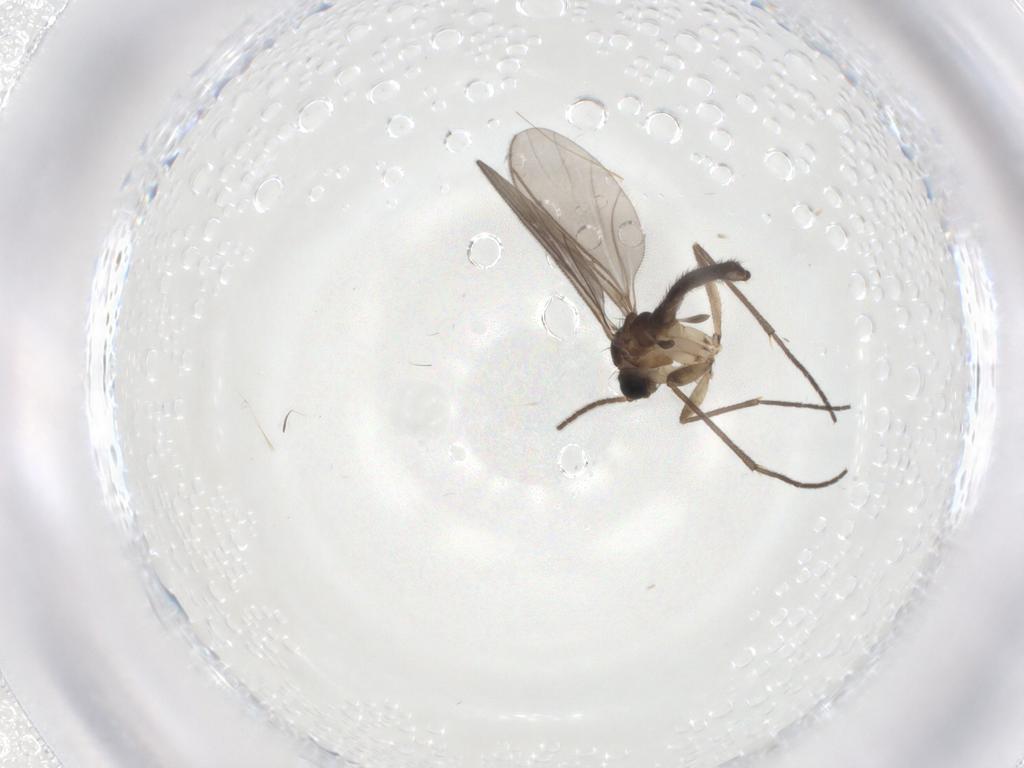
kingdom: Animalia
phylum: Arthropoda
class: Insecta
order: Diptera
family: Sciaridae
